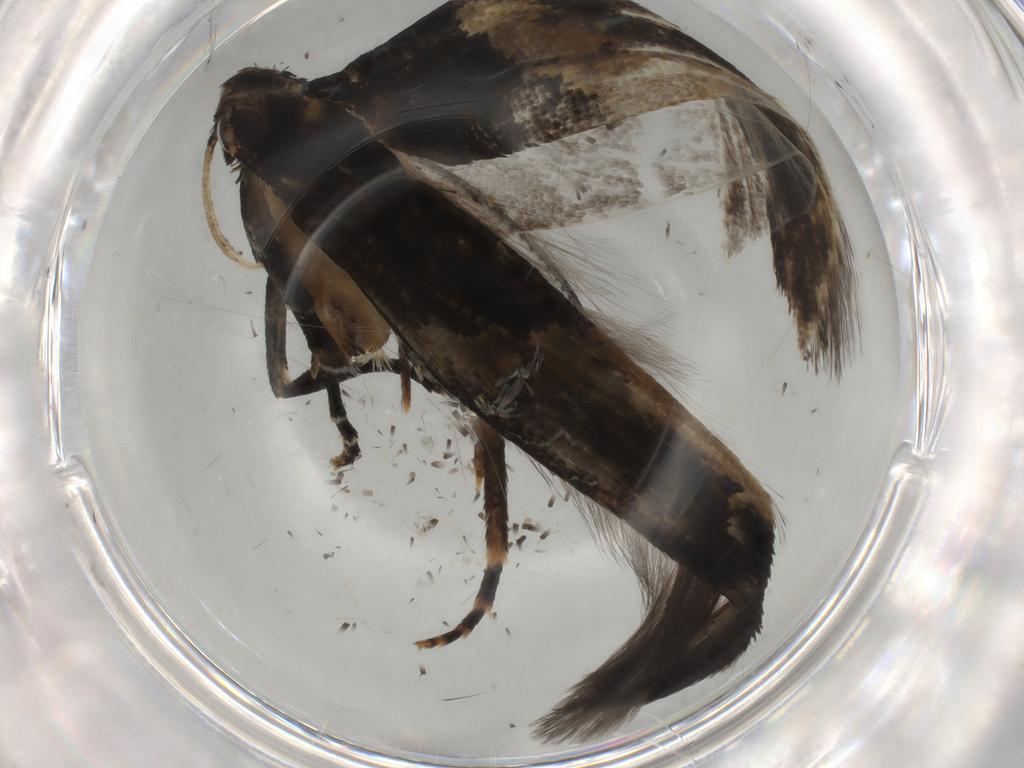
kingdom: Animalia
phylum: Arthropoda
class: Insecta
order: Lepidoptera
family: Gelechiidae
